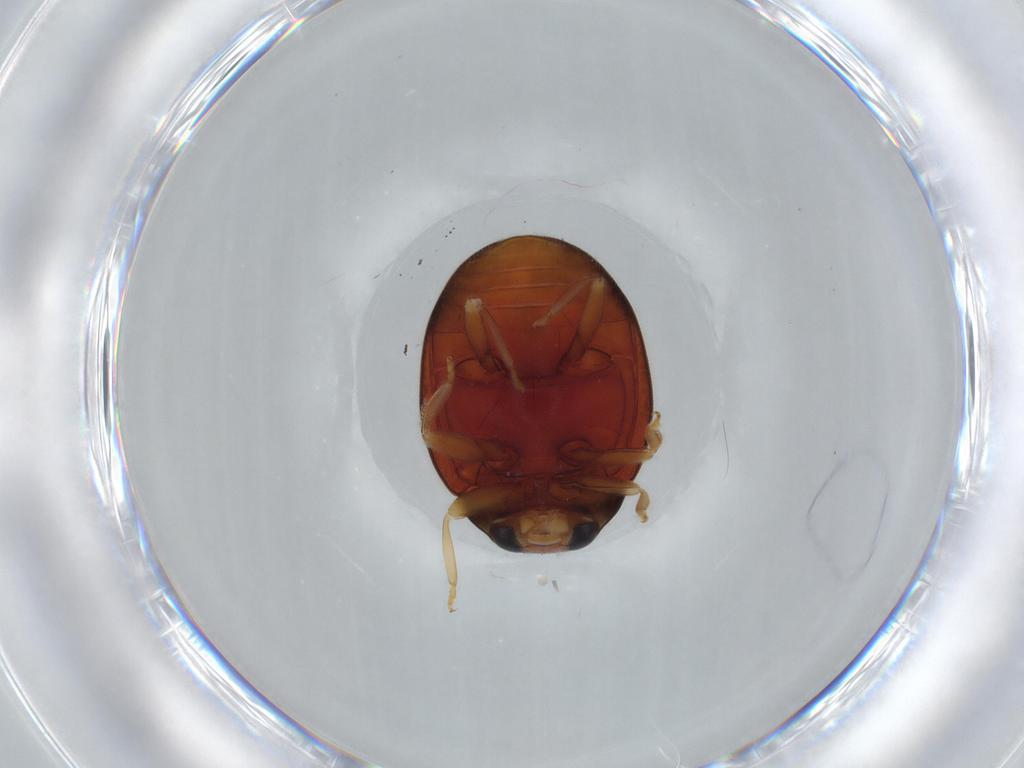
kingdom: Animalia
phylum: Arthropoda
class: Insecta
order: Coleoptera
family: Coccinellidae
